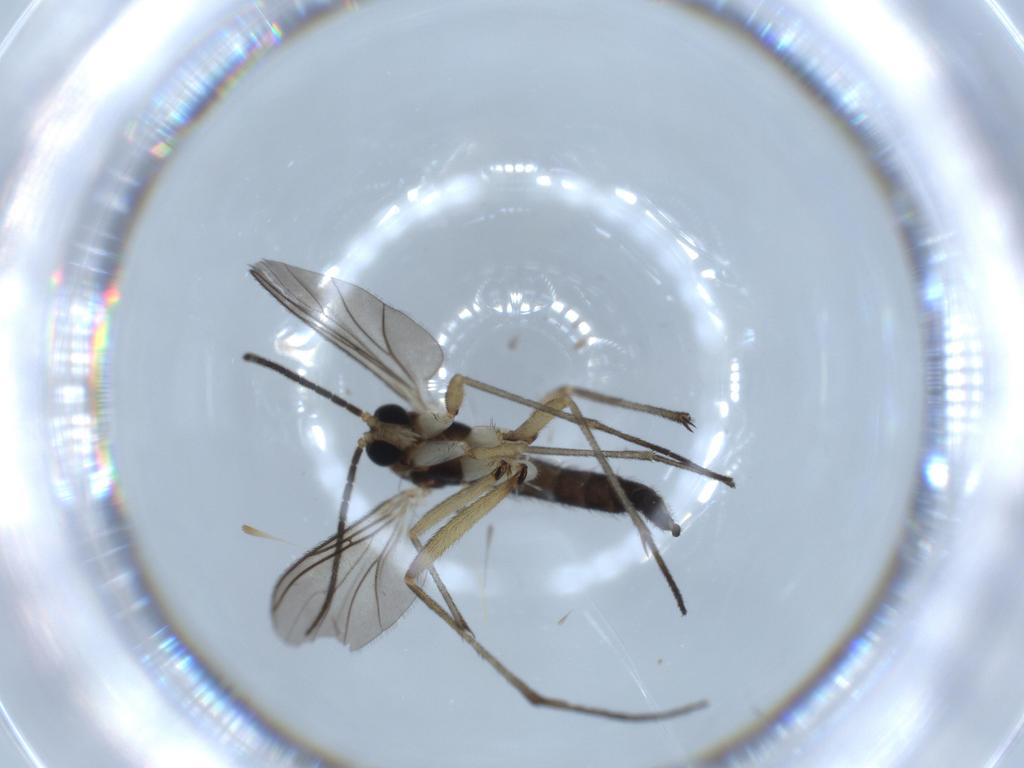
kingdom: Animalia
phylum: Arthropoda
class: Insecta
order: Diptera
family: Sciaridae
